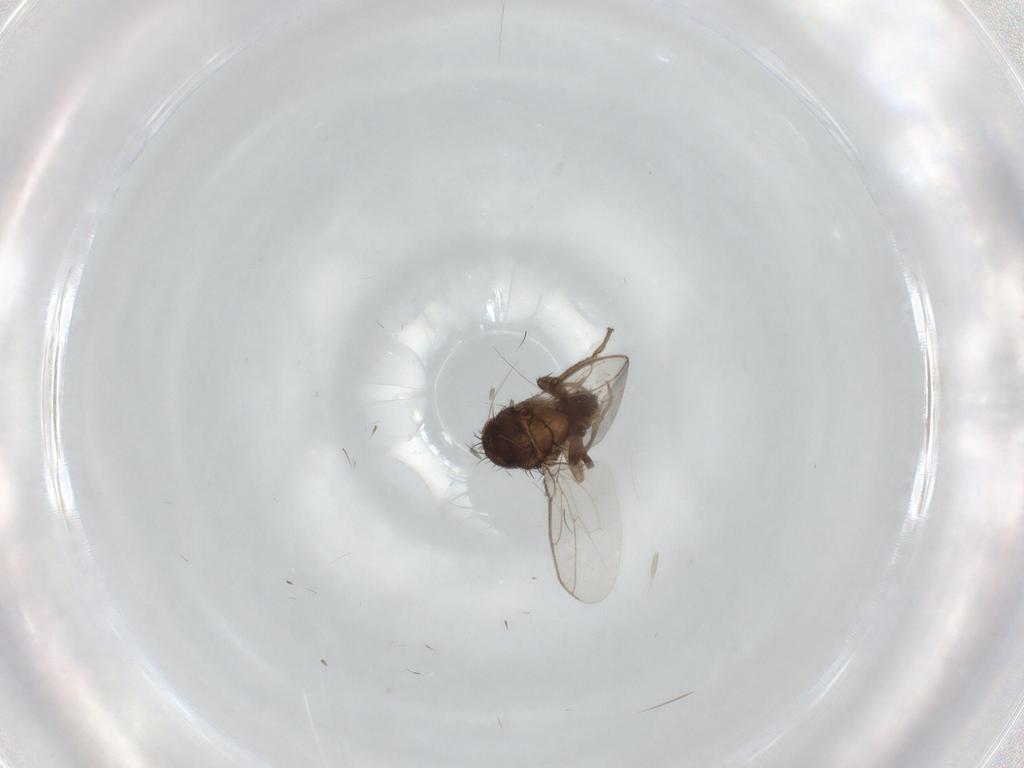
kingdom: Animalia
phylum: Arthropoda
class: Insecta
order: Diptera
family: Sphaeroceridae
